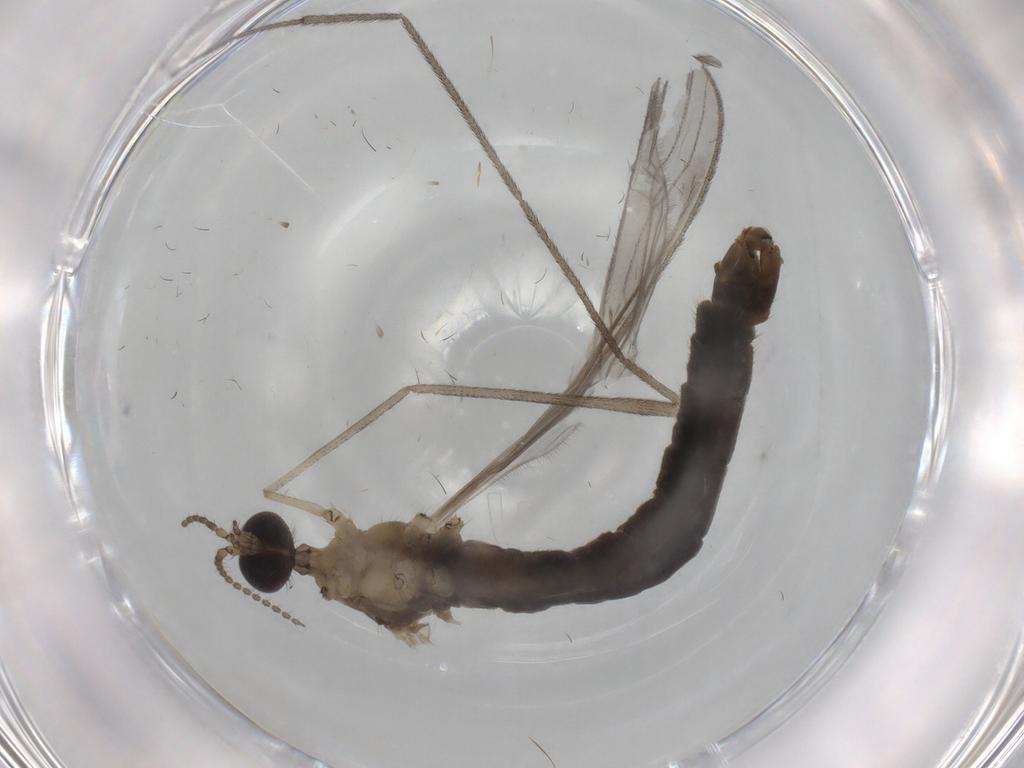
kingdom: Animalia
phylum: Arthropoda
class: Insecta
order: Diptera
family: Limoniidae
